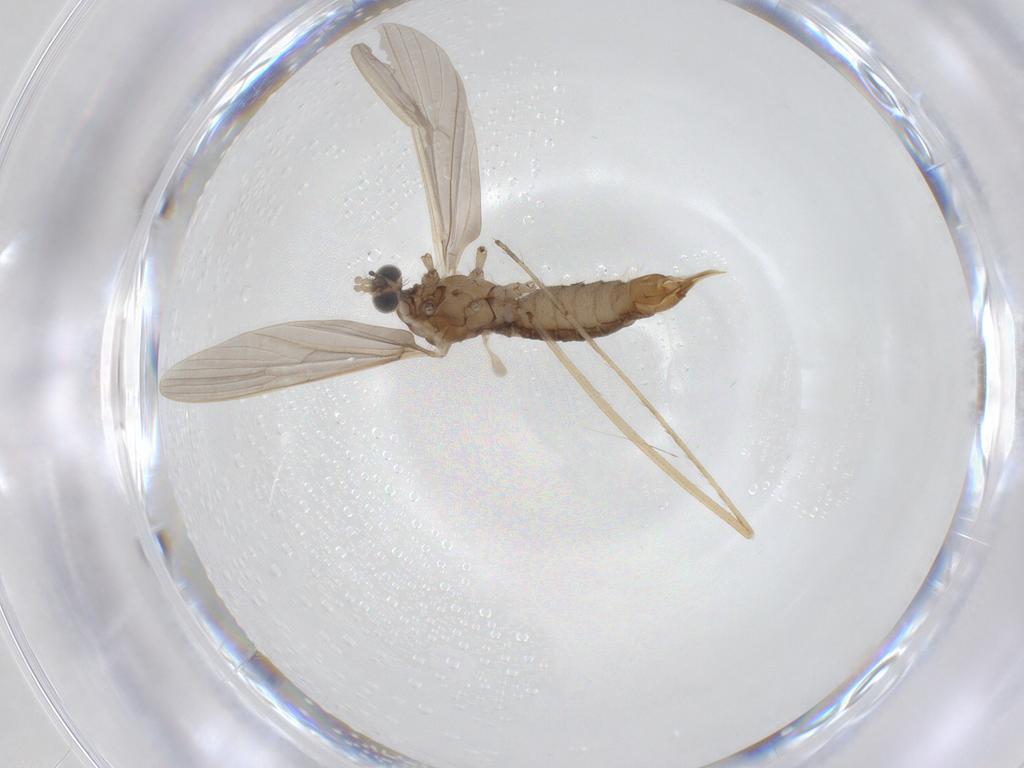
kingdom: Animalia
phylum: Arthropoda
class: Insecta
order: Diptera
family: Limoniidae
